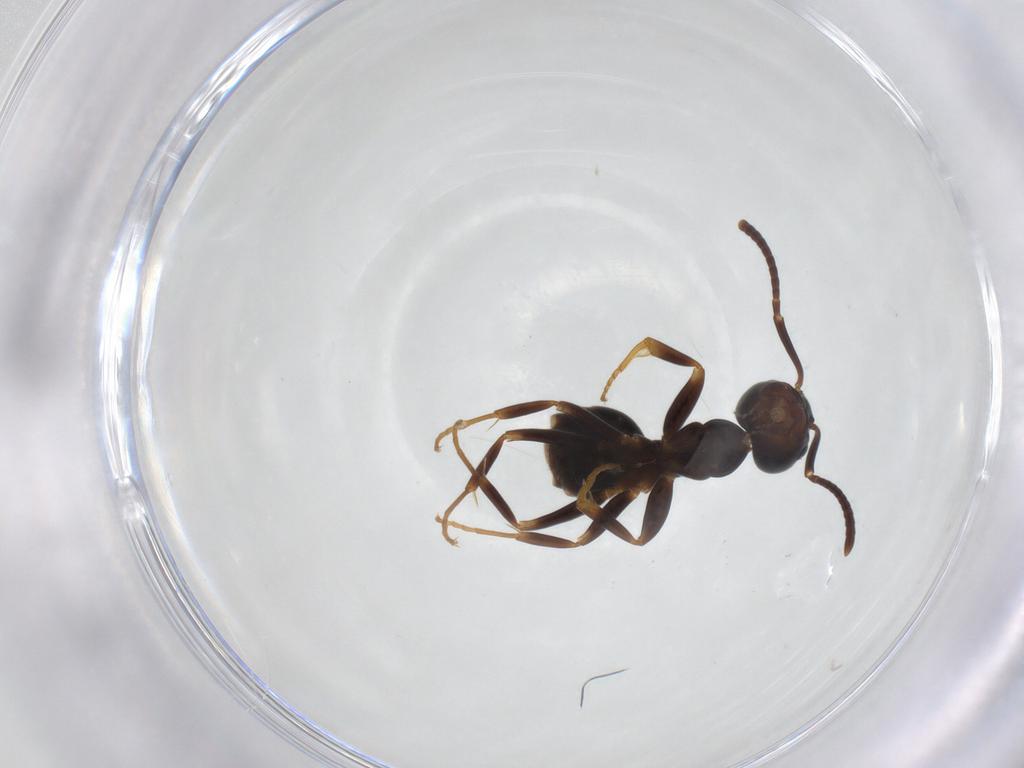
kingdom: Animalia
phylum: Arthropoda
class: Insecta
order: Hymenoptera
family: Formicidae
